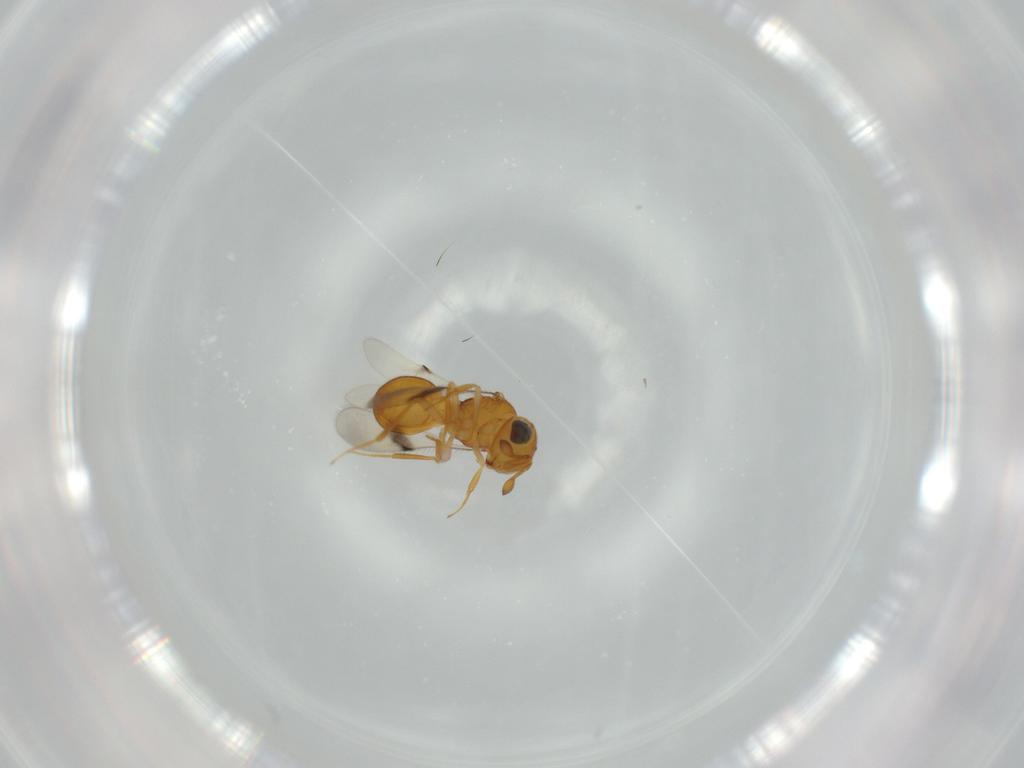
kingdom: Animalia
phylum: Arthropoda
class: Insecta
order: Hymenoptera
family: Scelionidae
